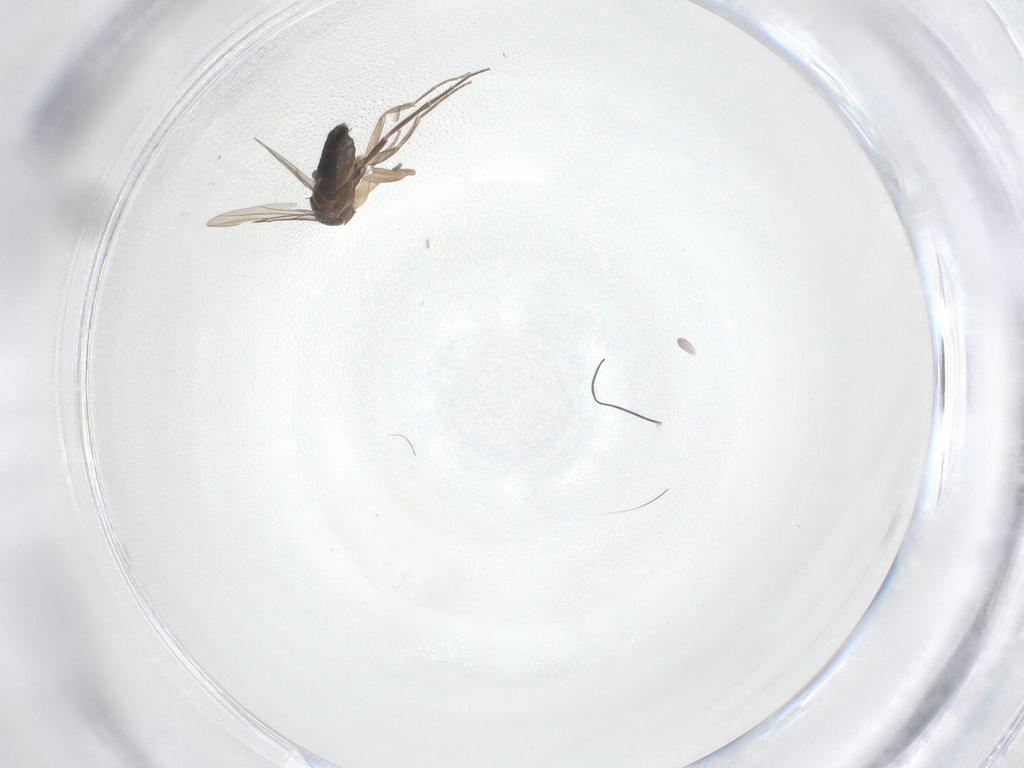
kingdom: Animalia
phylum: Arthropoda
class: Insecta
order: Diptera
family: Phoridae
